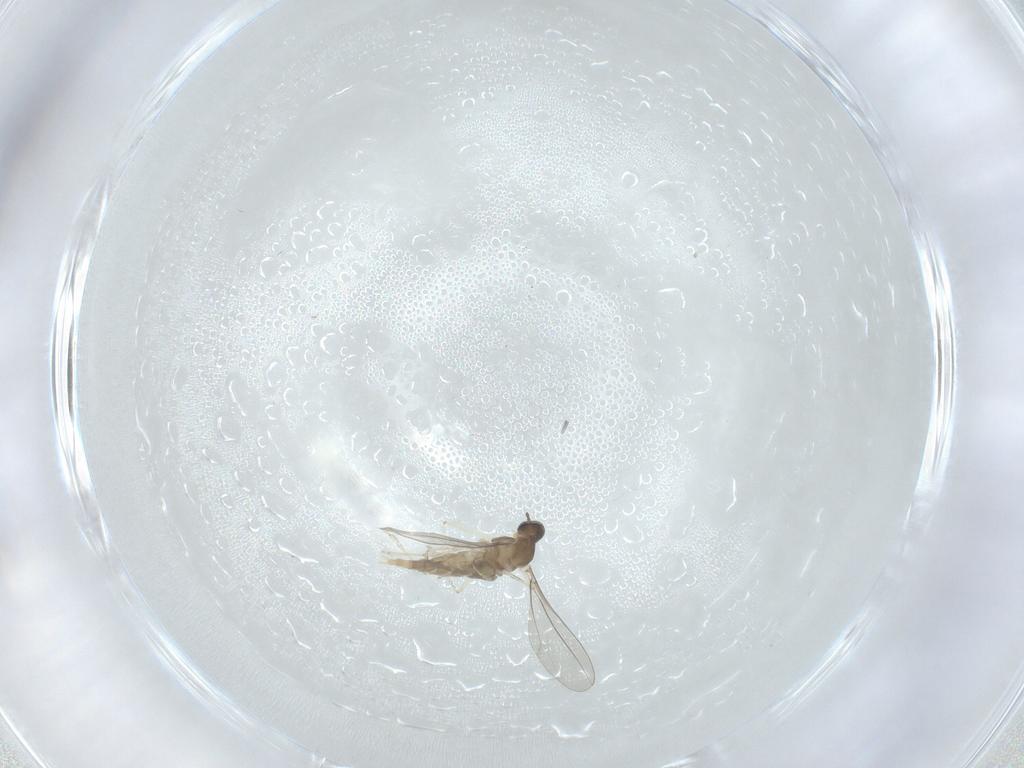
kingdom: Animalia
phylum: Arthropoda
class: Insecta
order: Diptera
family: Cecidomyiidae
